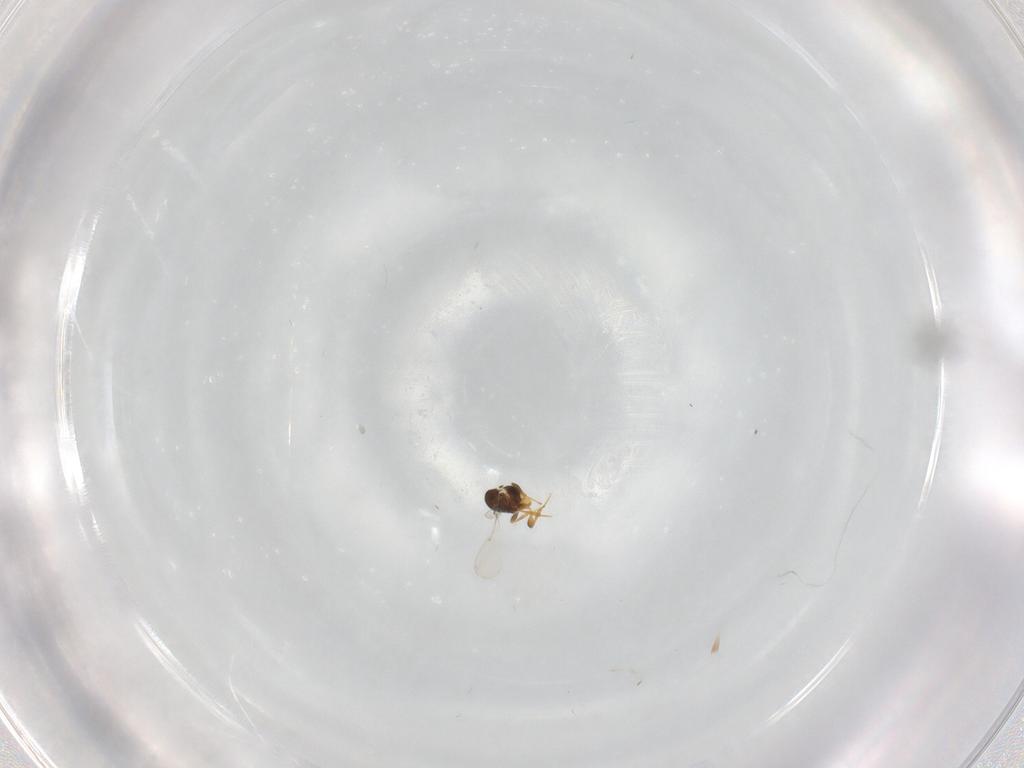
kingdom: Animalia
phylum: Arthropoda
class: Insecta
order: Hymenoptera
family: Platygastridae
